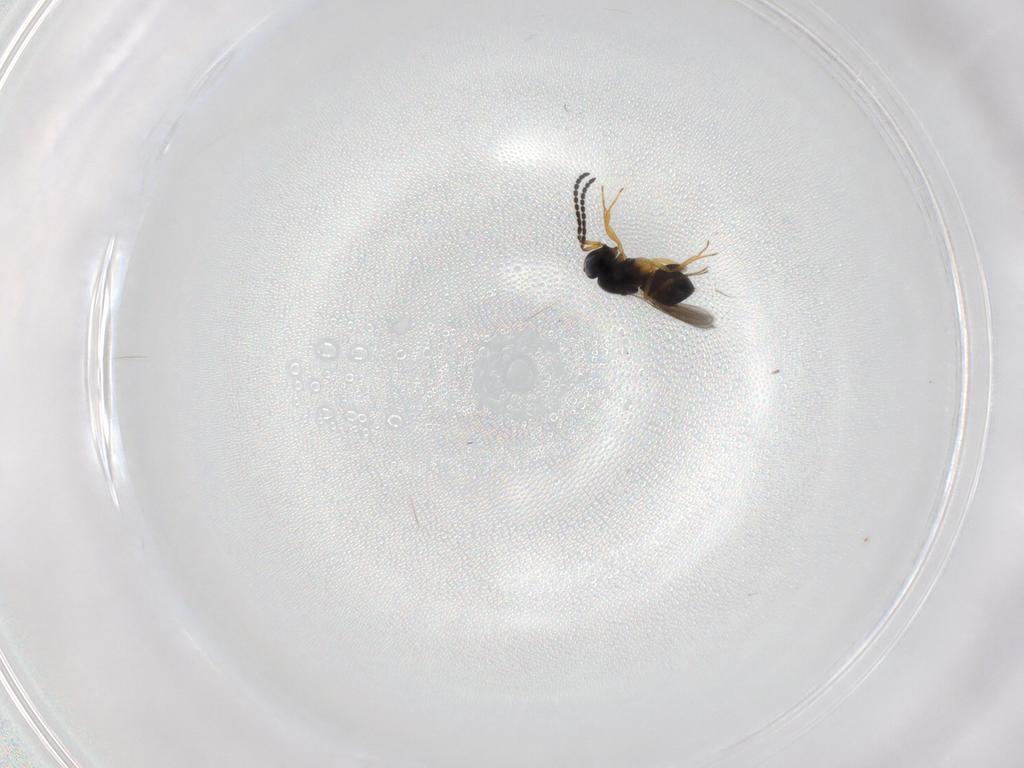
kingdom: Animalia
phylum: Arthropoda
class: Insecta
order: Hymenoptera
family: Scelionidae
